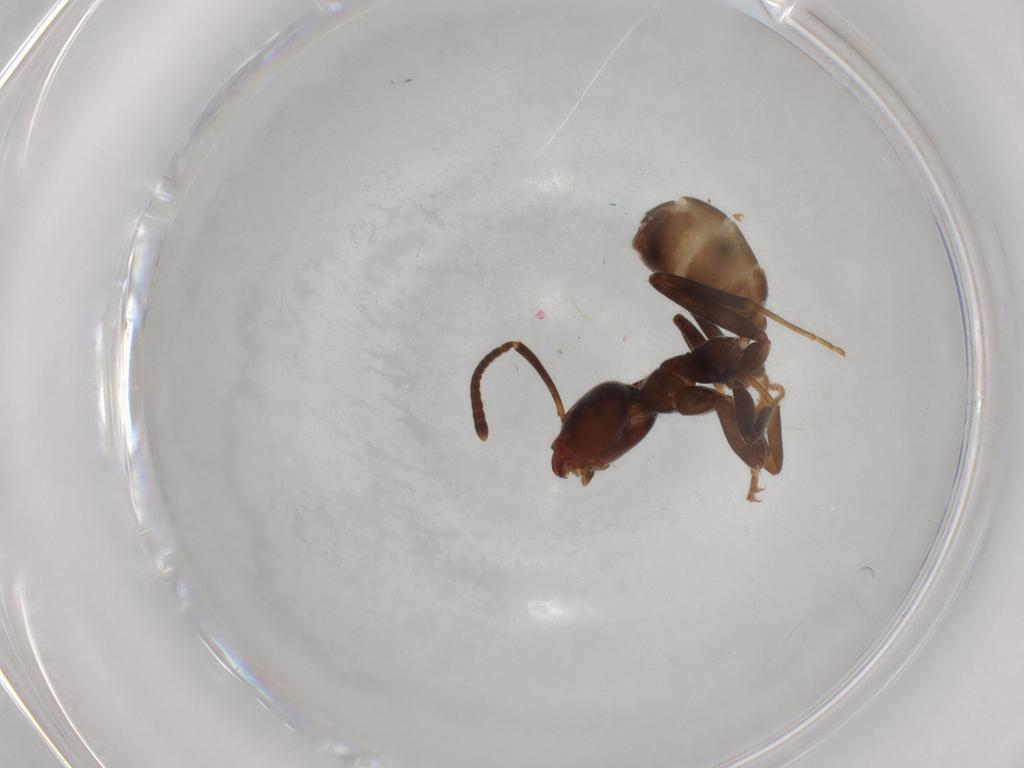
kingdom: Animalia
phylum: Arthropoda
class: Insecta
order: Hymenoptera
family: Formicidae
